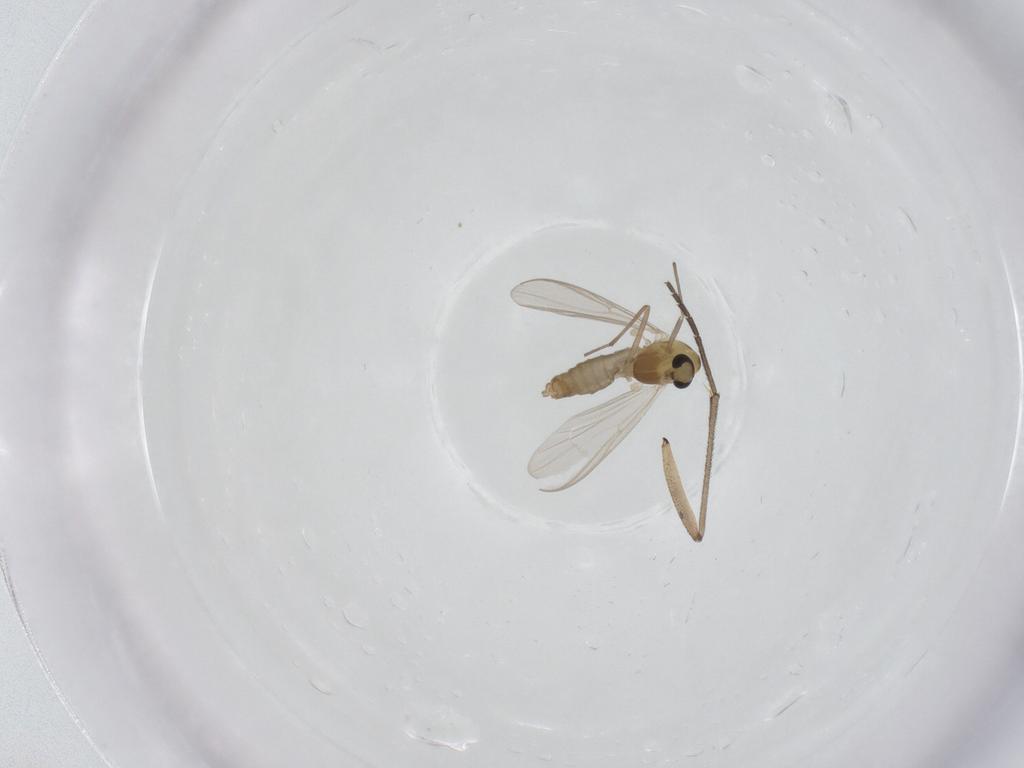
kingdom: Animalia
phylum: Arthropoda
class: Insecta
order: Diptera
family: Chironomidae
